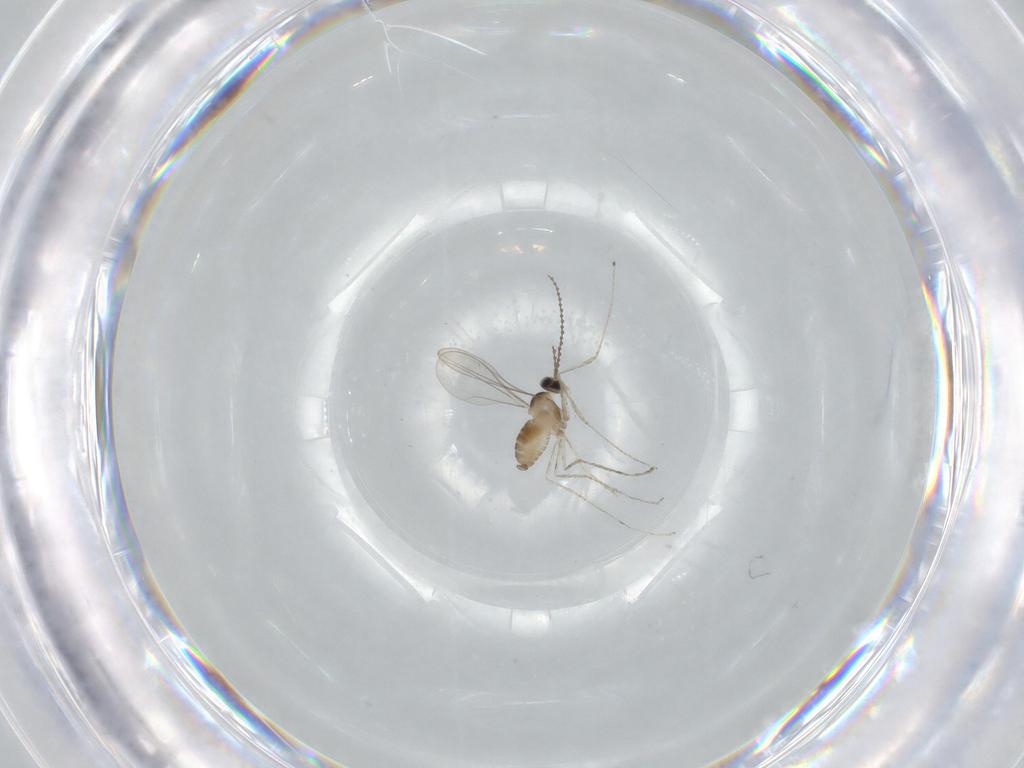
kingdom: Animalia
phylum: Arthropoda
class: Insecta
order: Diptera
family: Cecidomyiidae
